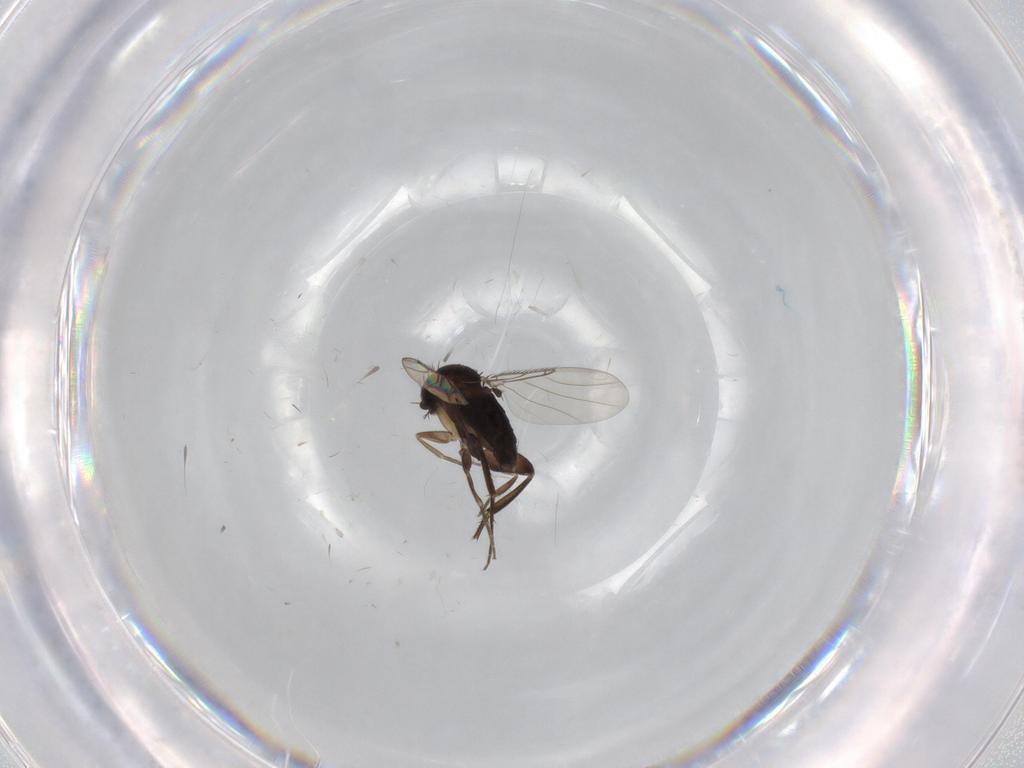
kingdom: Animalia
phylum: Arthropoda
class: Insecta
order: Diptera
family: Phoridae
